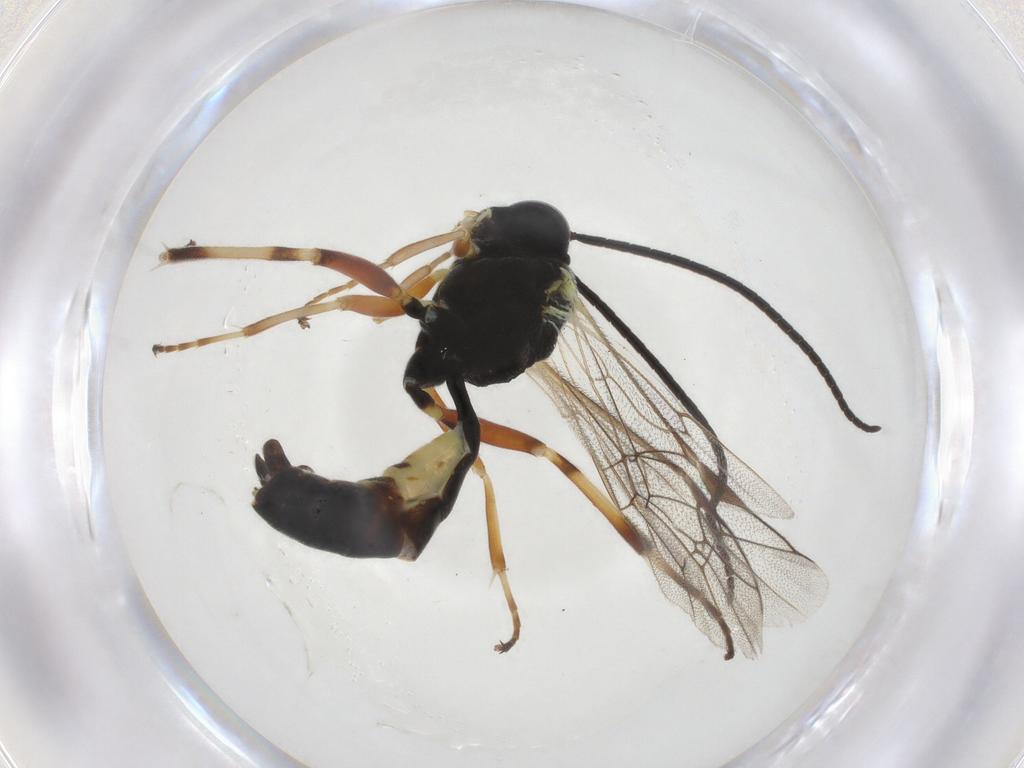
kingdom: Animalia
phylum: Arthropoda
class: Insecta
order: Hymenoptera
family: Ichneumonidae
